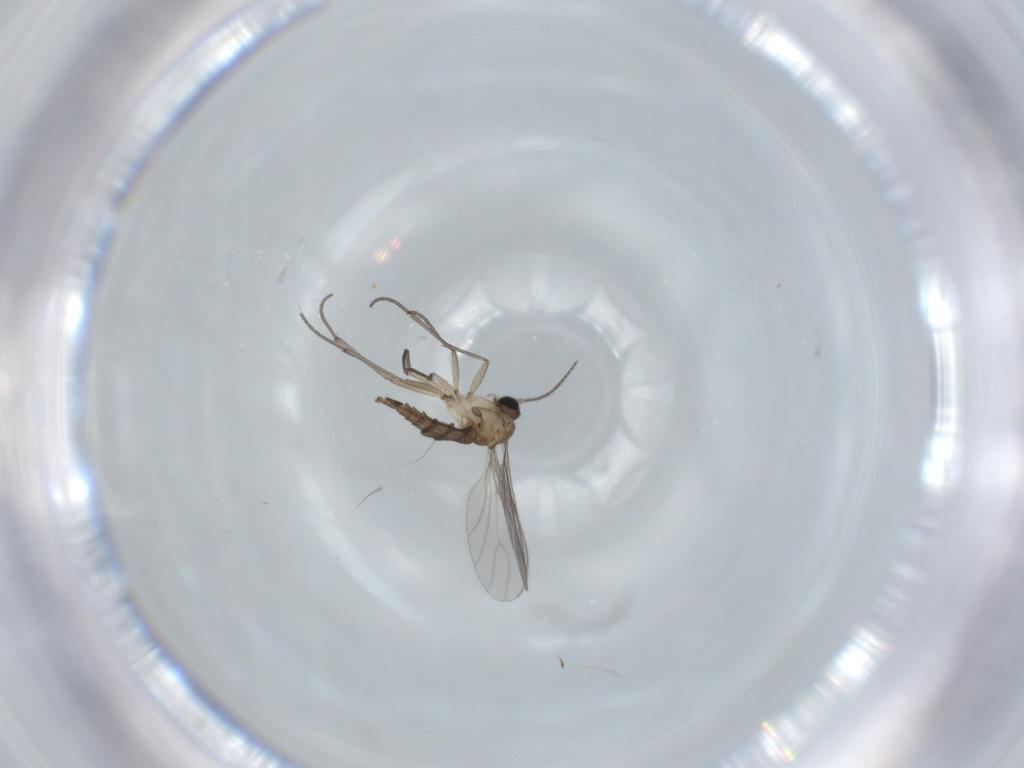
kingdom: Animalia
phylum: Arthropoda
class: Insecta
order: Diptera
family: Sciaridae
